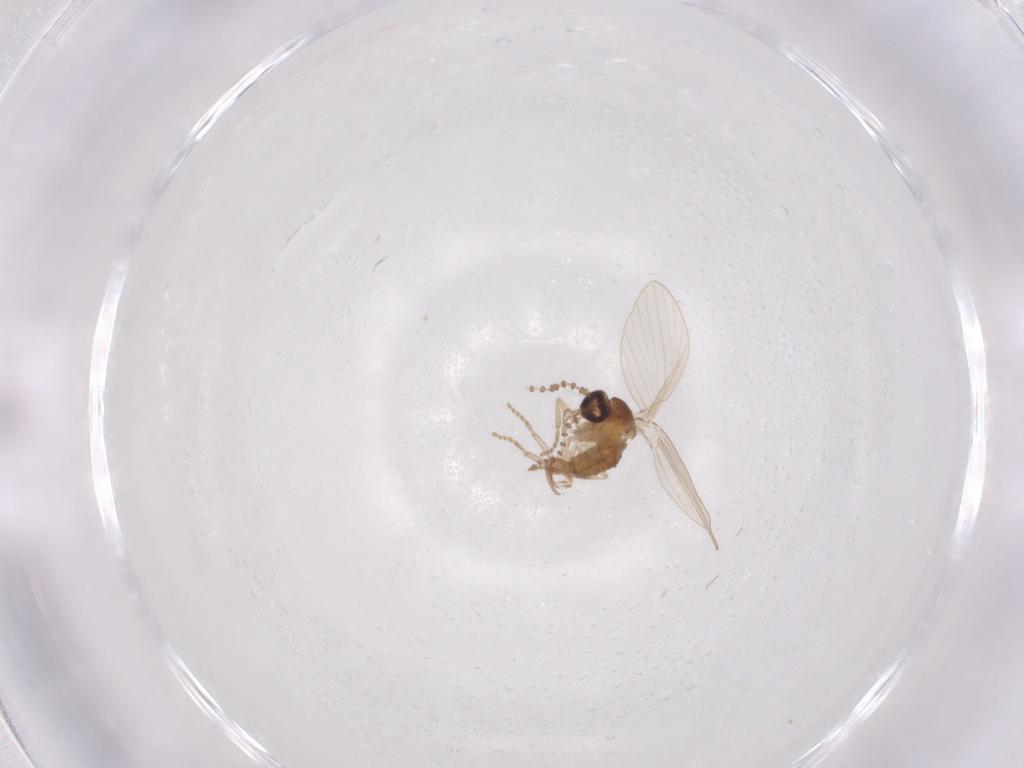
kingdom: Animalia
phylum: Arthropoda
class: Insecta
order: Diptera
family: Psychodidae
